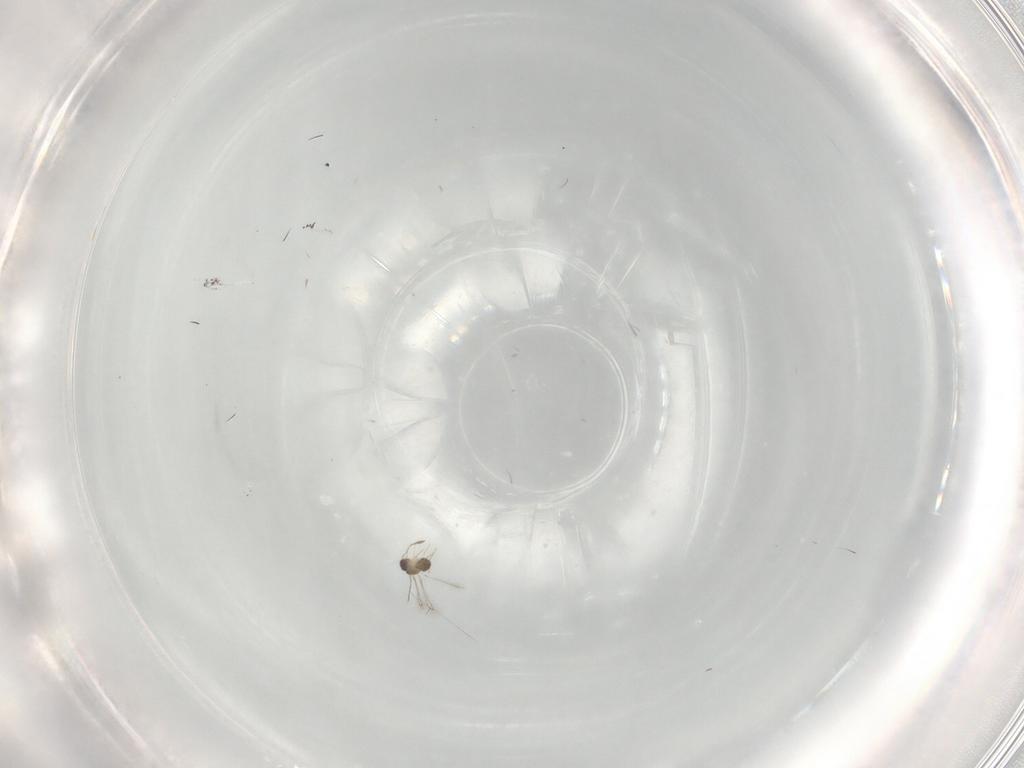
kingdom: Animalia
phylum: Arthropoda
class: Insecta
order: Hymenoptera
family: Mymaridae
